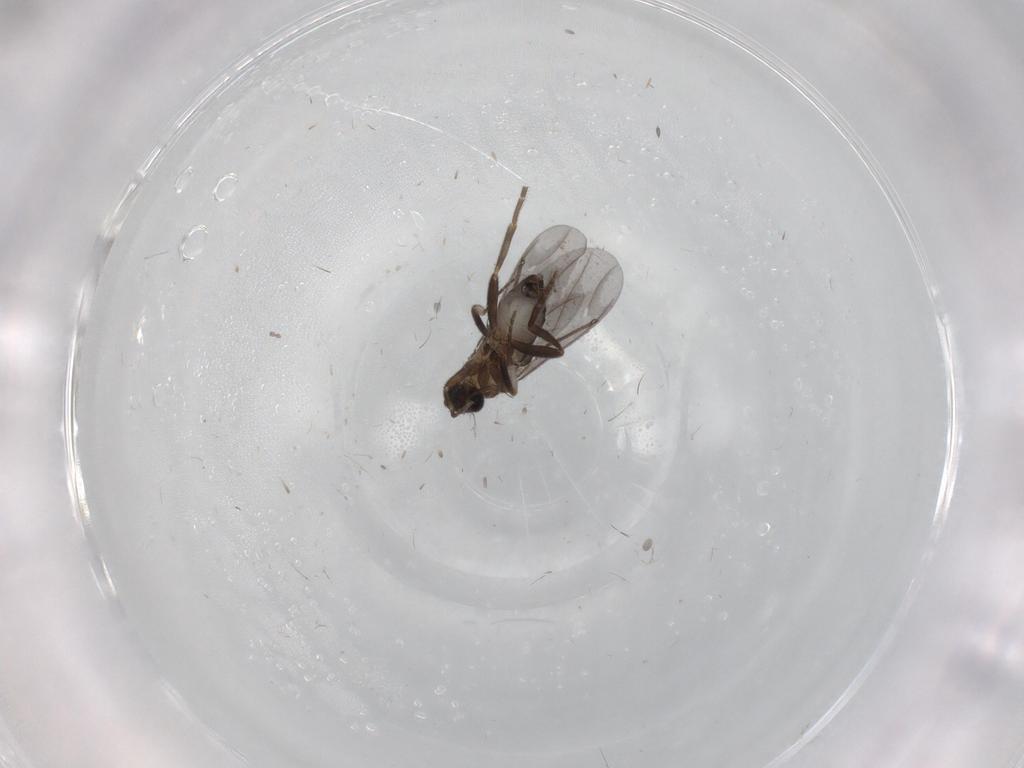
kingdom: Animalia
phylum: Arthropoda
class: Insecta
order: Diptera
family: Cecidomyiidae
